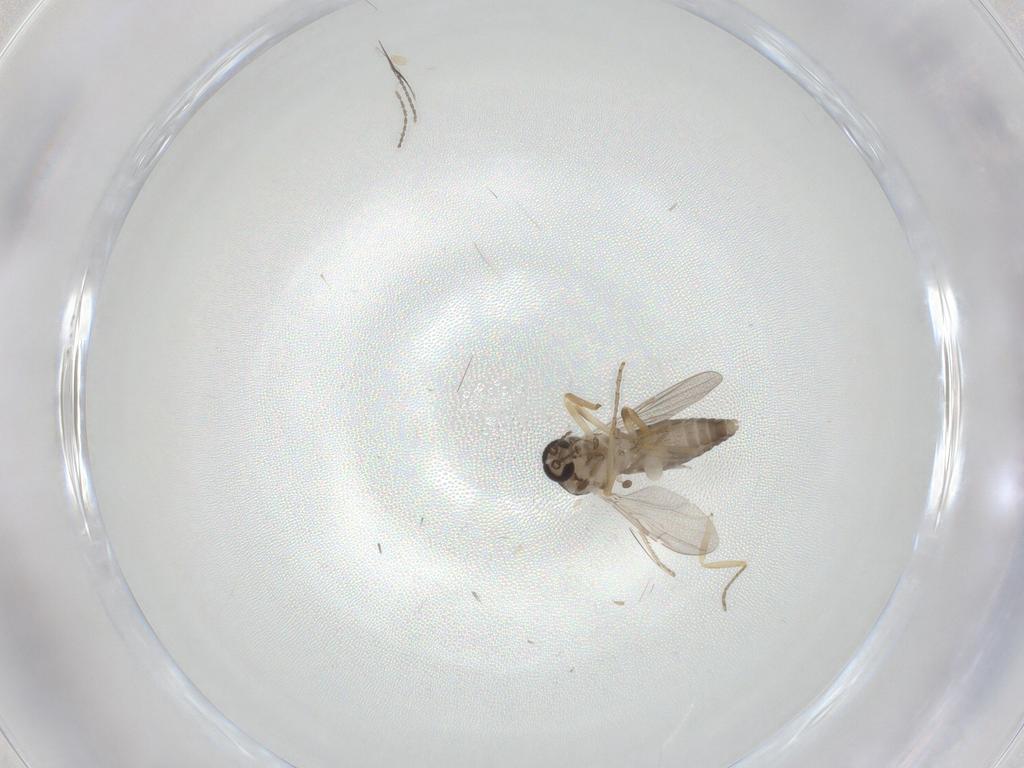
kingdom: Animalia
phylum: Arthropoda
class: Insecta
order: Diptera
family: Ceratopogonidae
